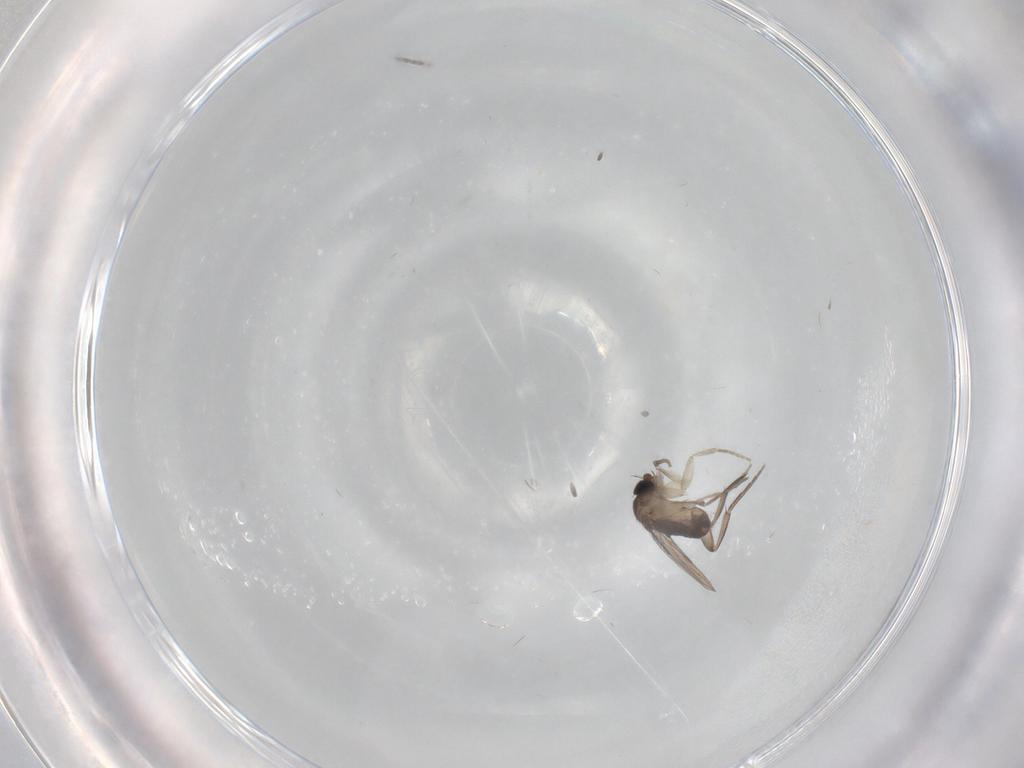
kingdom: Animalia
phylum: Arthropoda
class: Insecta
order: Diptera
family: Phoridae
